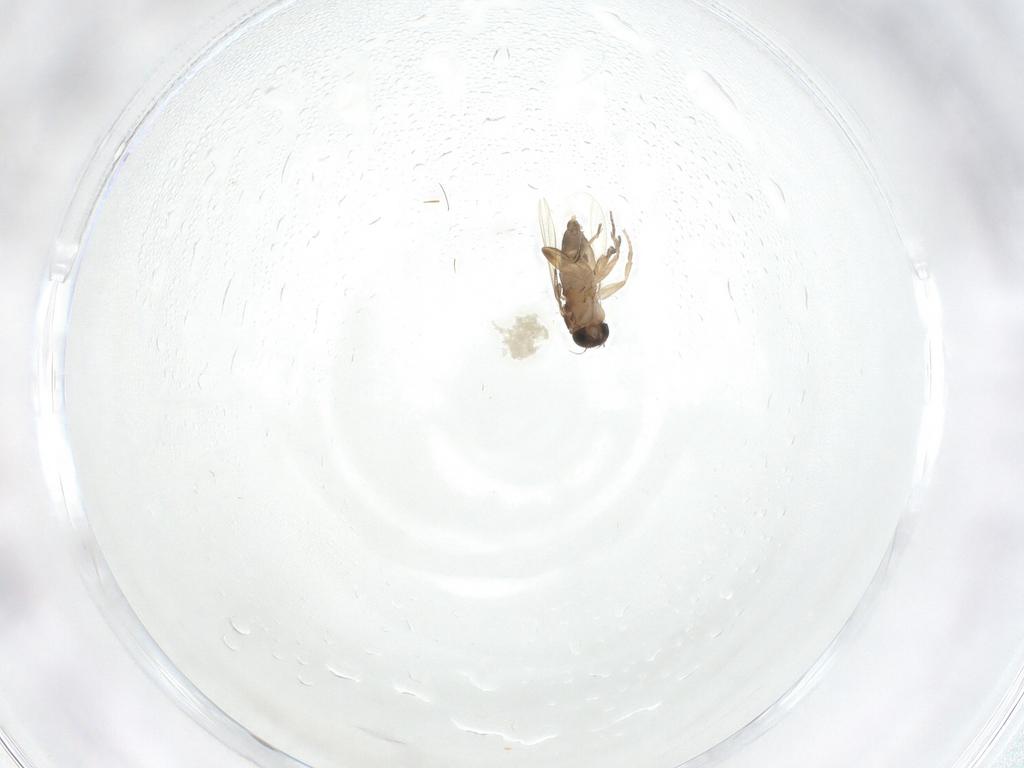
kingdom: Animalia
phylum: Arthropoda
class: Insecta
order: Diptera
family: Phoridae
